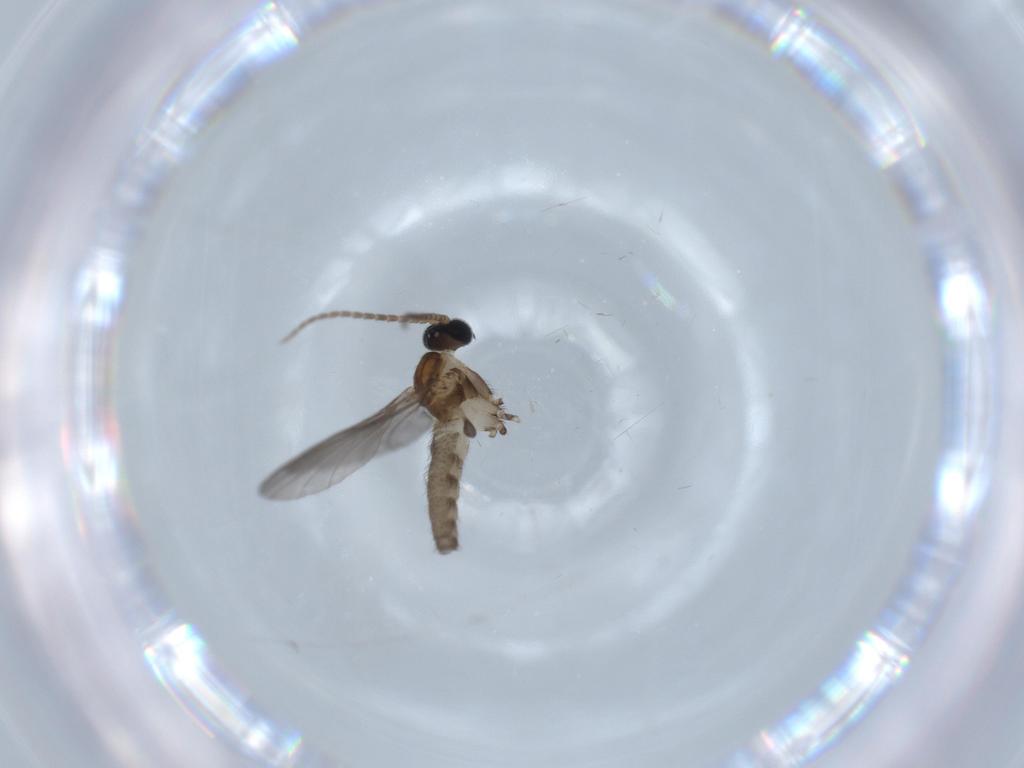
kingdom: Animalia
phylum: Arthropoda
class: Insecta
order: Diptera
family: Sciaridae
